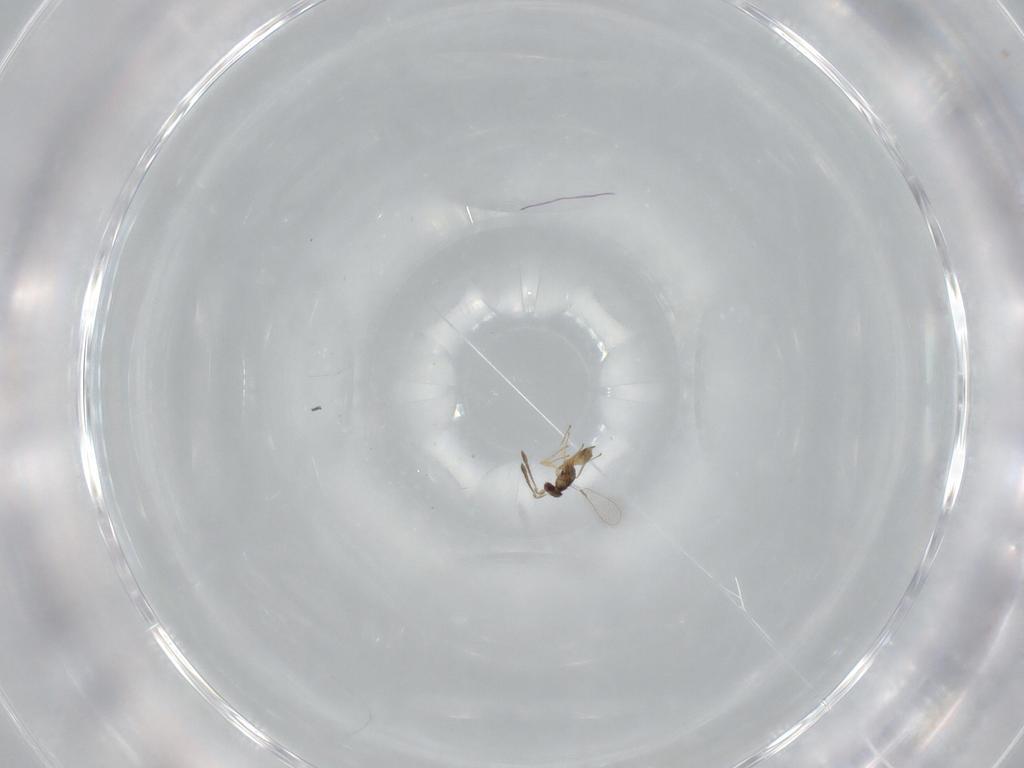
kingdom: Animalia
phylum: Arthropoda
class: Insecta
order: Hymenoptera
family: Mymaridae
